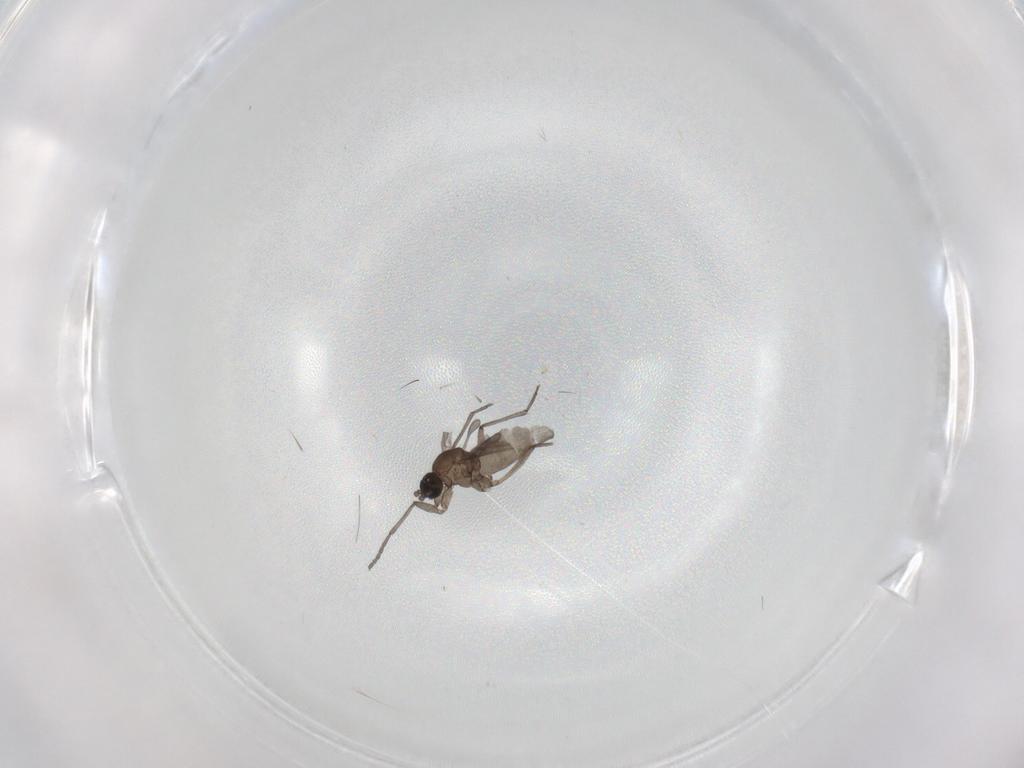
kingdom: Animalia
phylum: Arthropoda
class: Insecta
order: Diptera
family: Sciaridae
